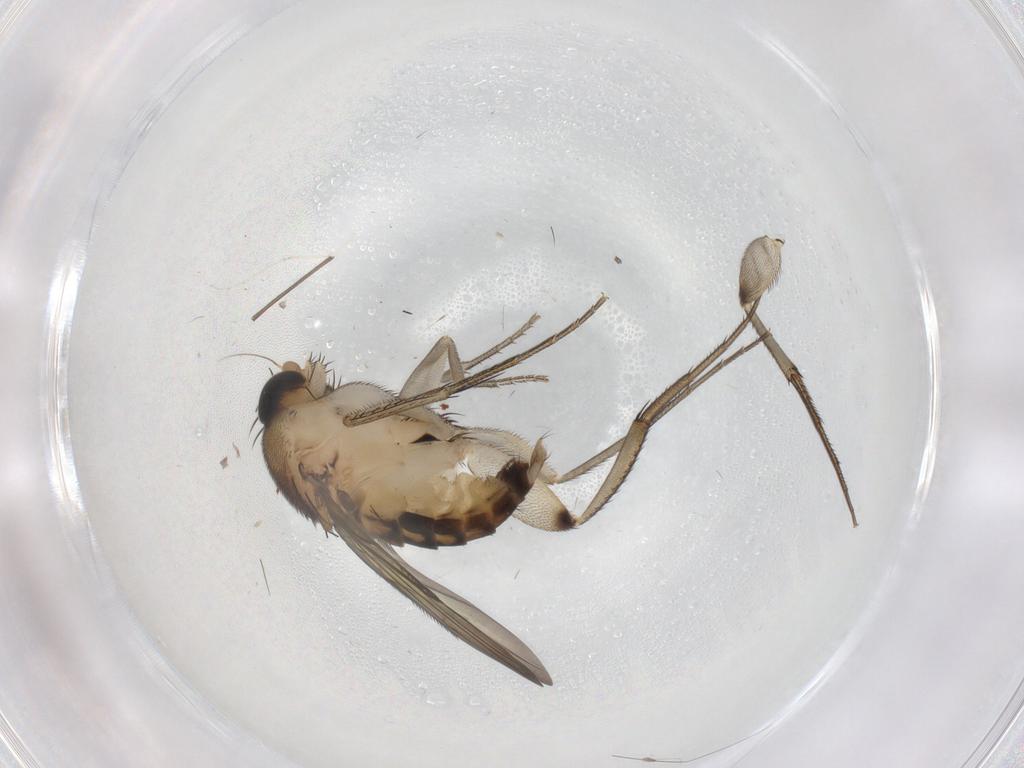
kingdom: Animalia
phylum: Arthropoda
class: Insecta
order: Diptera
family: Phoridae
